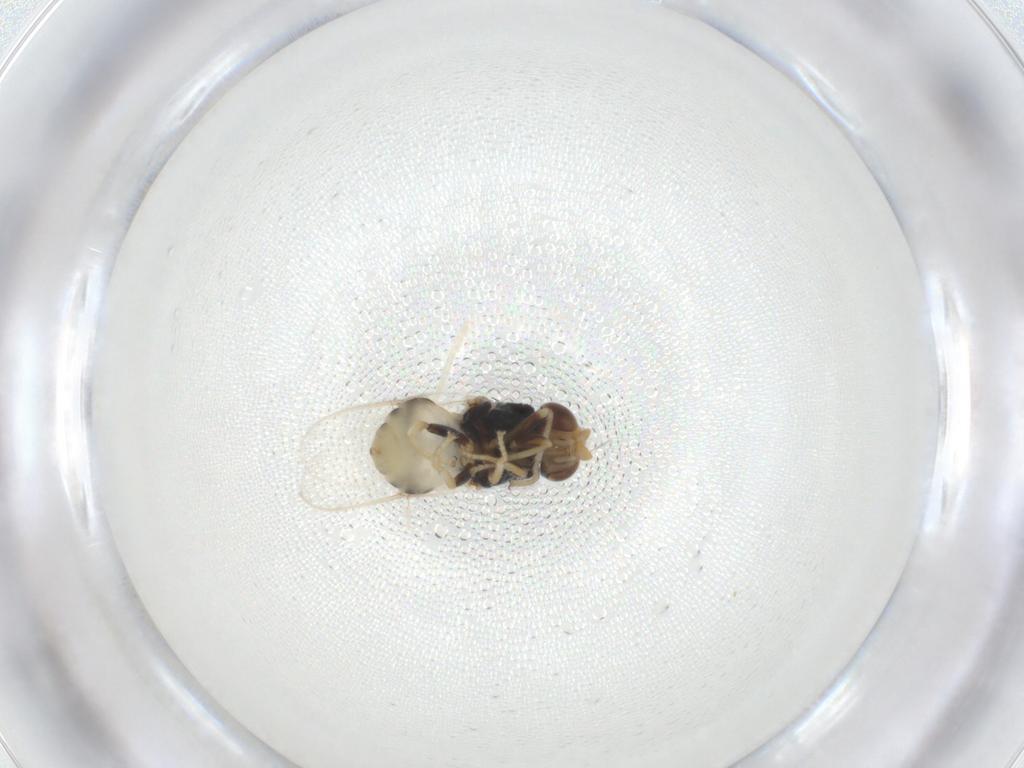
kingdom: Animalia
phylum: Arthropoda
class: Insecta
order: Diptera
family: Chloropidae
